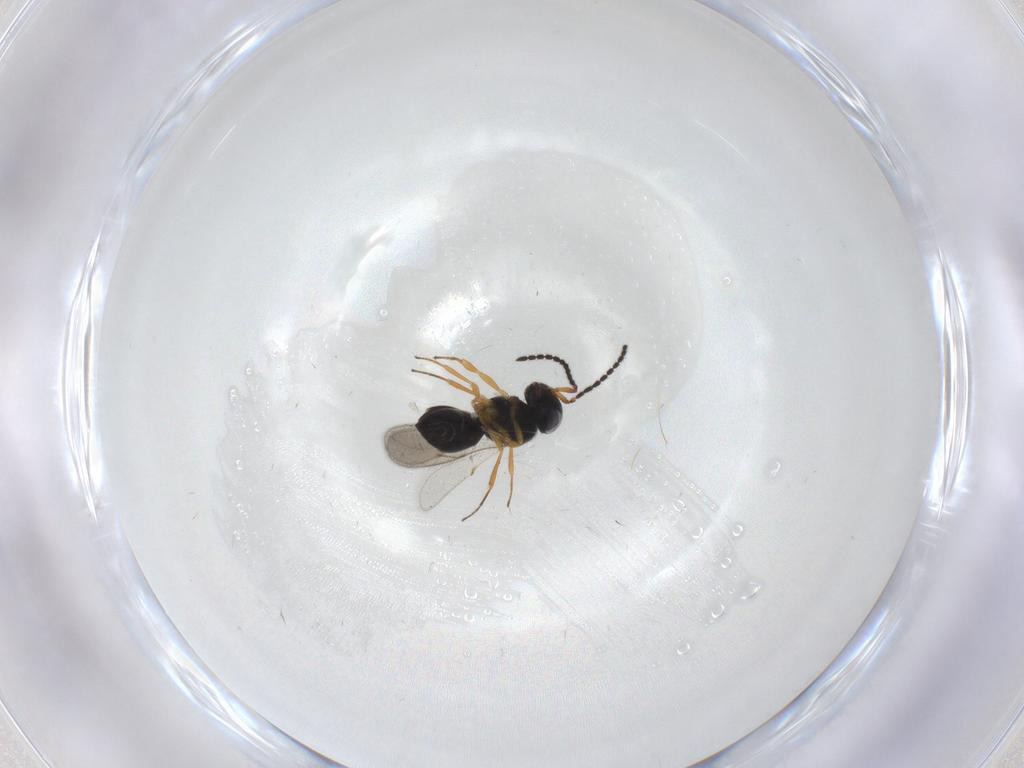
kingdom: Animalia
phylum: Arthropoda
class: Insecta
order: Hymenoptera
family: Scelionidae
